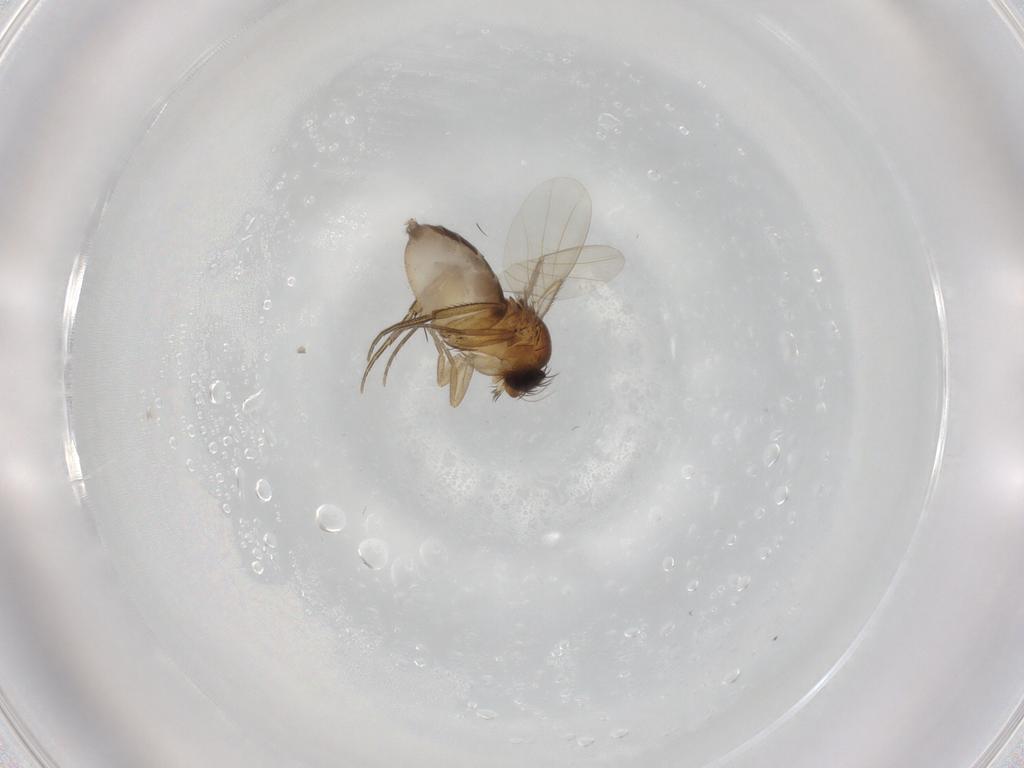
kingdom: Animalia
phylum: Arthropoda
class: Insecta
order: Diptera
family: Phoridae
